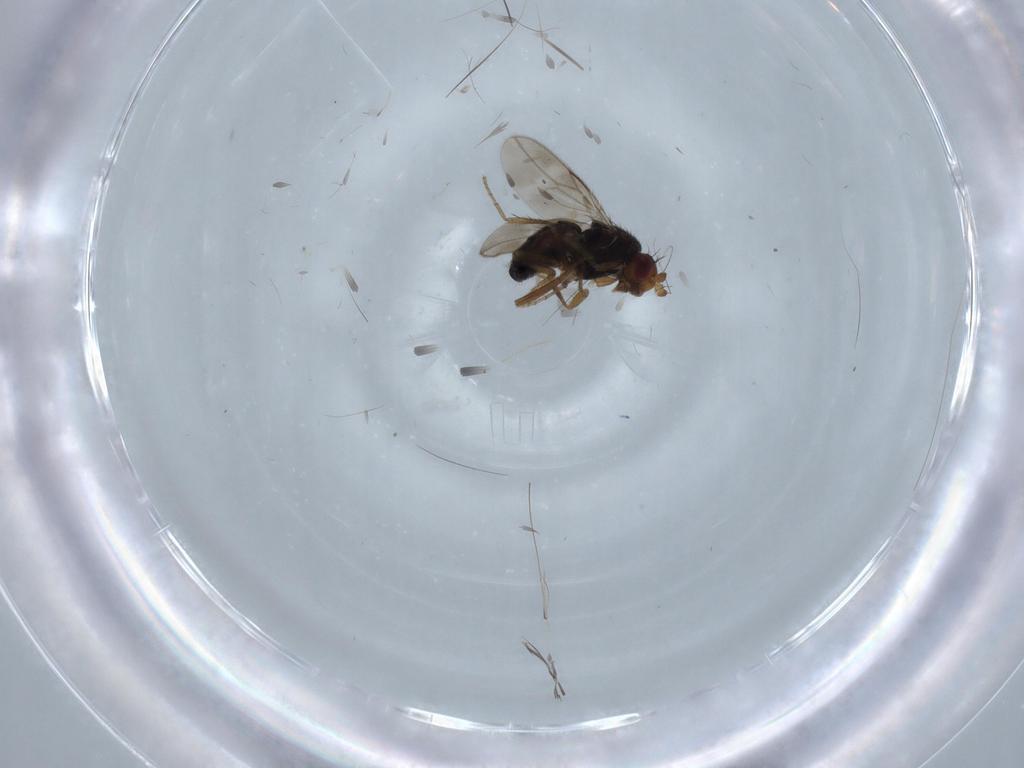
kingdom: Animalia
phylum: Arthropoda
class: Insecta
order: Diptera
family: Sphaeroceridae
